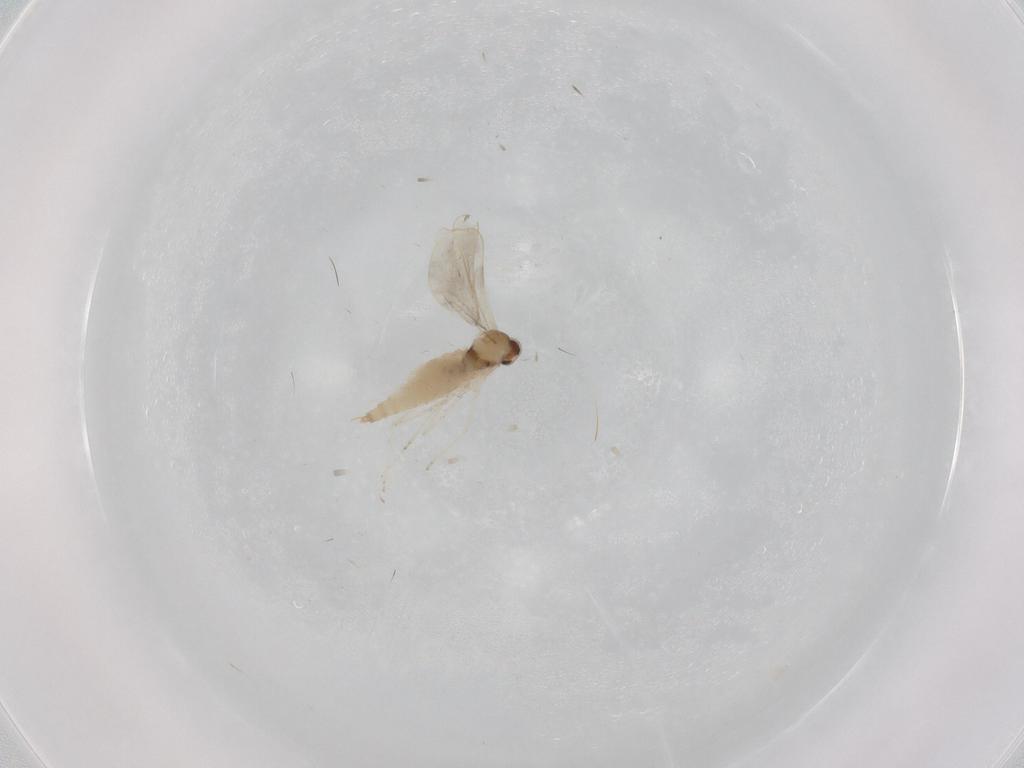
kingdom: Animalia
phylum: Arthropoda
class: Insecta
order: Diptera
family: Cecidomyiidae
